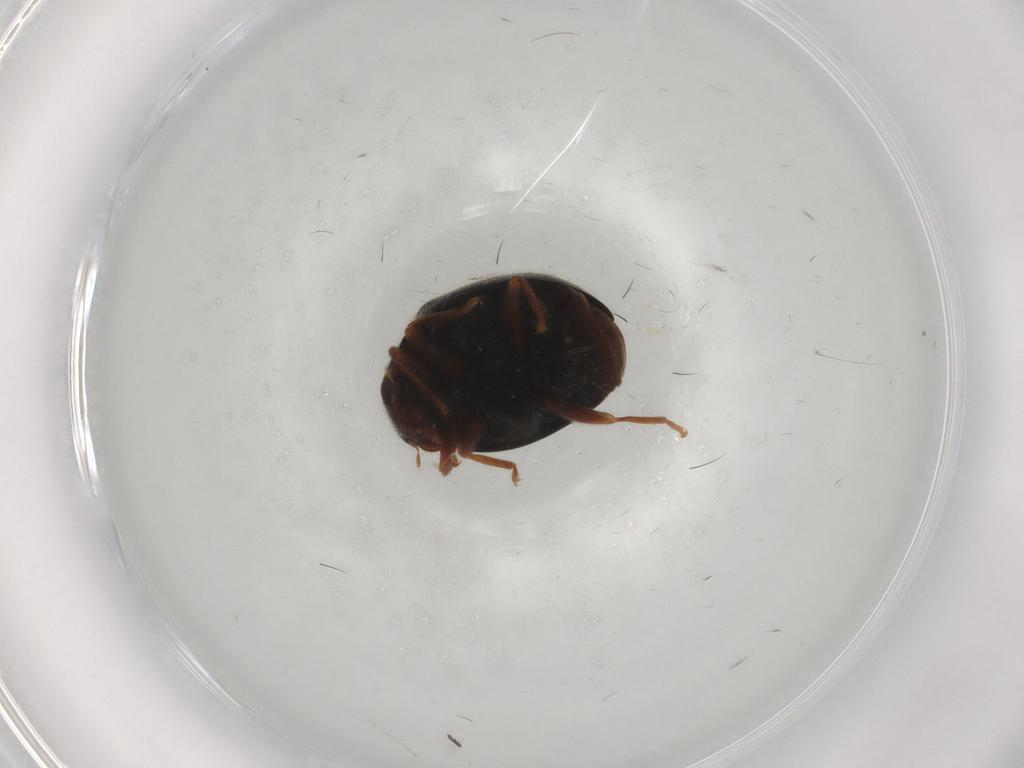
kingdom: Animalia
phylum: Arthropoda
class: Insecta
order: Coleoptera
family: Coccinellidae
